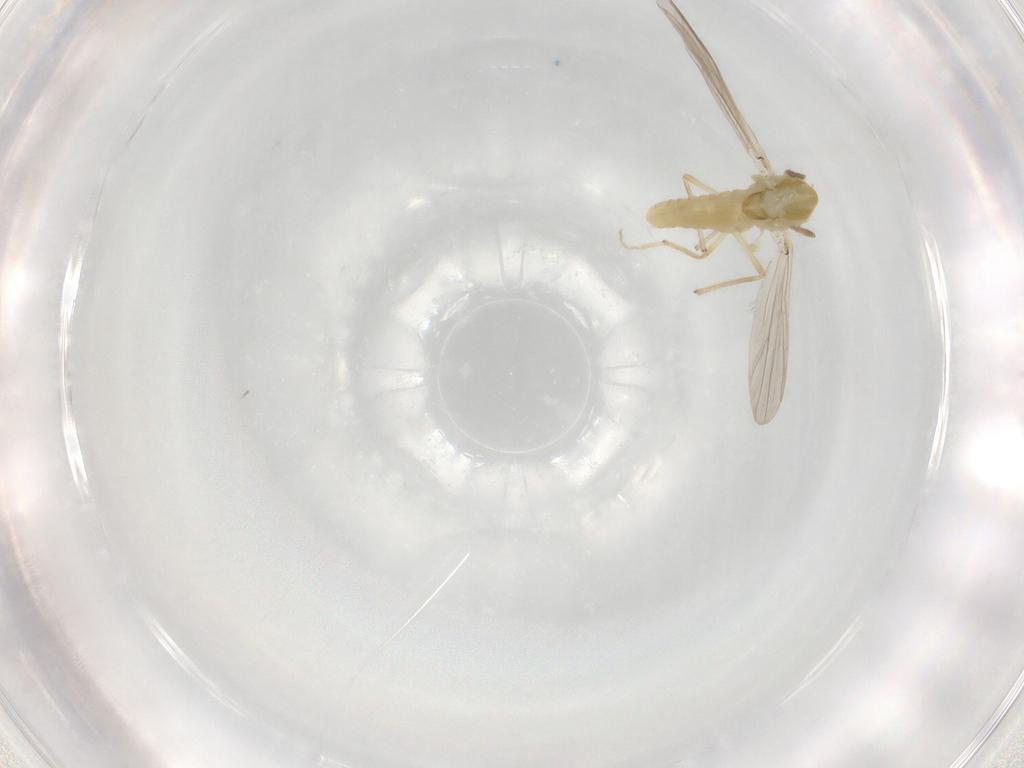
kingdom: Animalia
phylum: Arthropoda
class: Insecta
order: Diptera
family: Chironomidae
